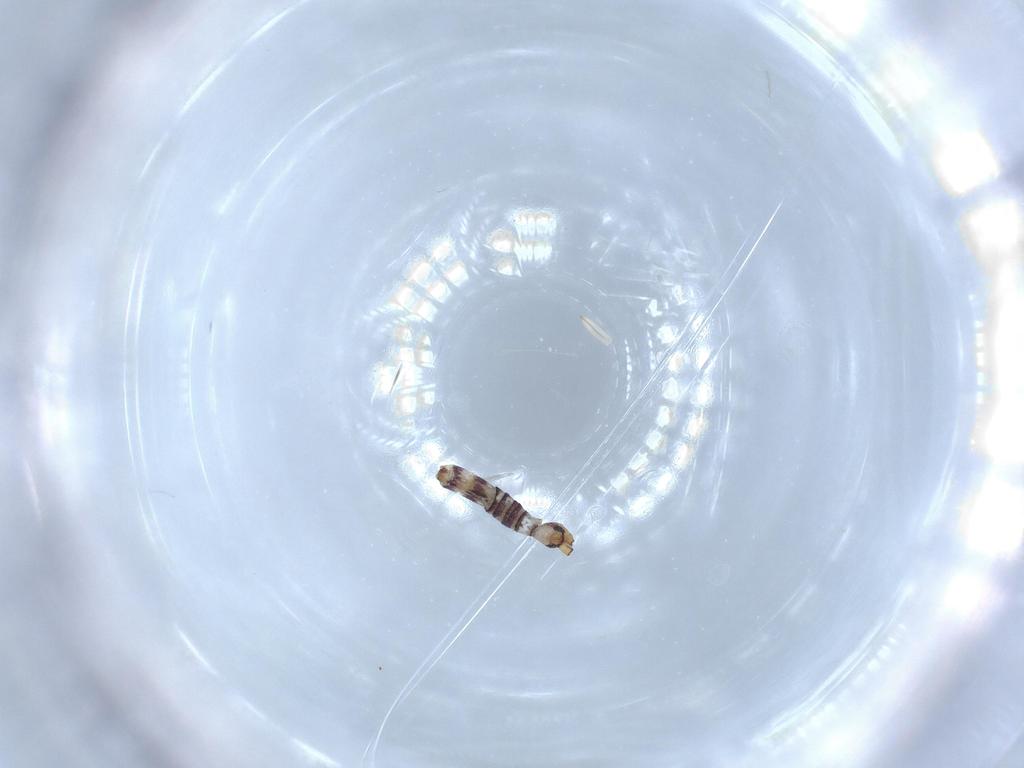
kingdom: Animalia
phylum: Arthropoda
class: Collembola
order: Entomobryomorpha
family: Entomobryidae
